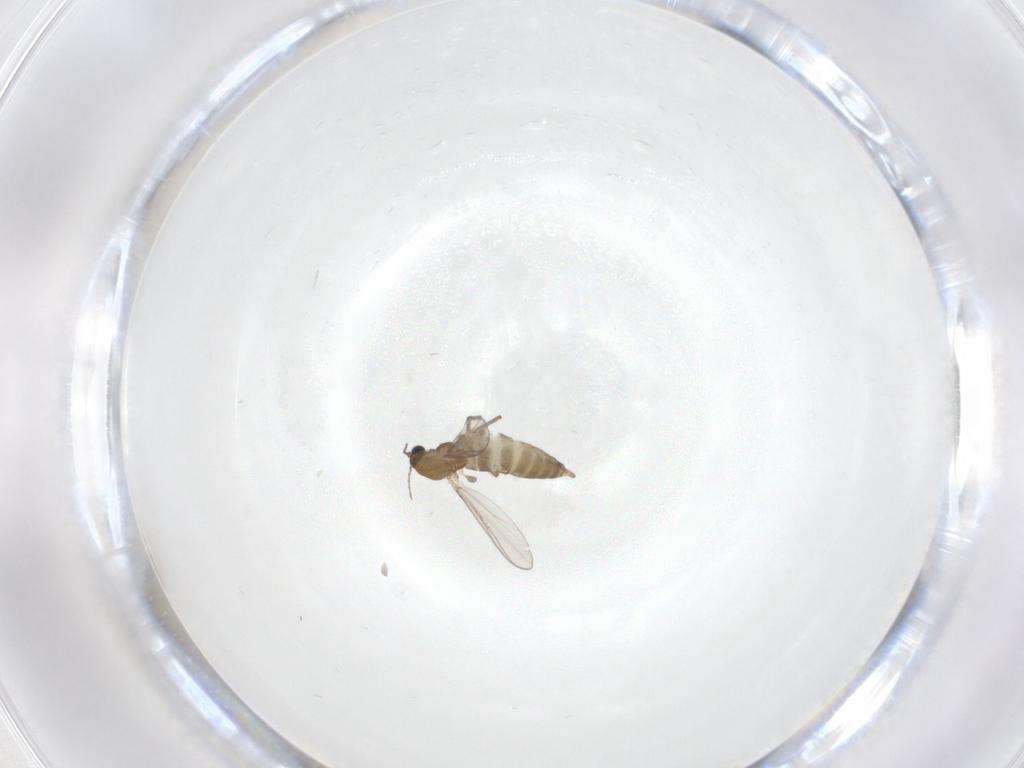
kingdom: Animalia
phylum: Arthropoda
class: Insecta
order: Diptera
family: Chironomidae
